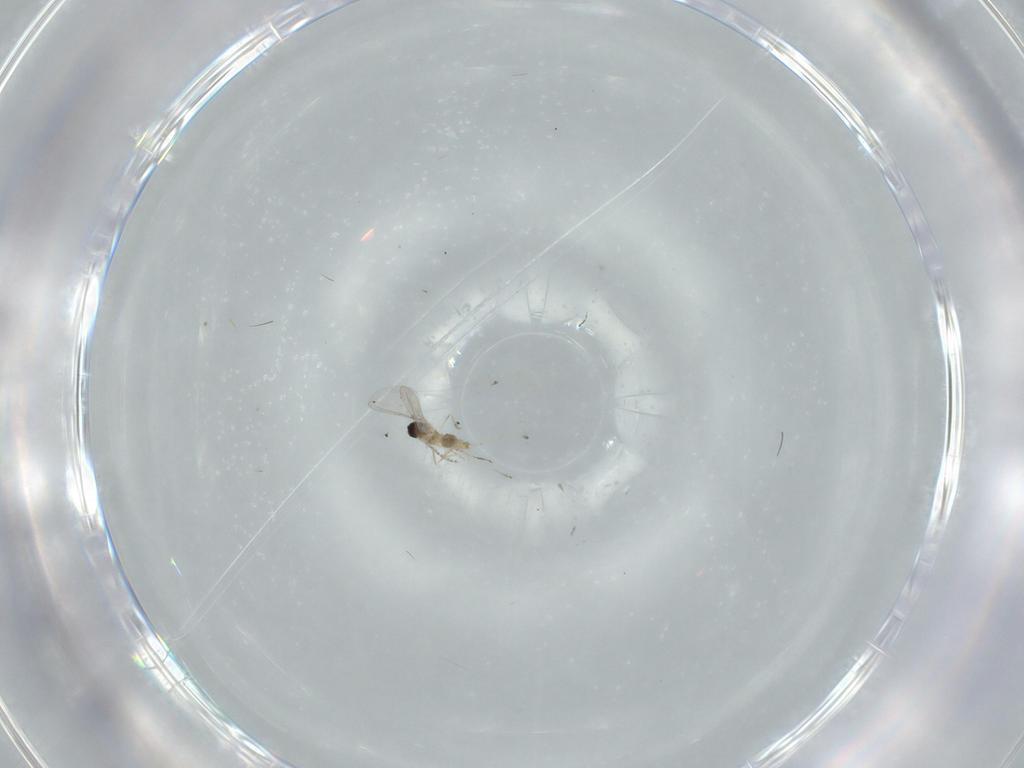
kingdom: Animalia
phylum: Arthropoda
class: Insecta
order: Diptera
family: Cecidomyiidae
